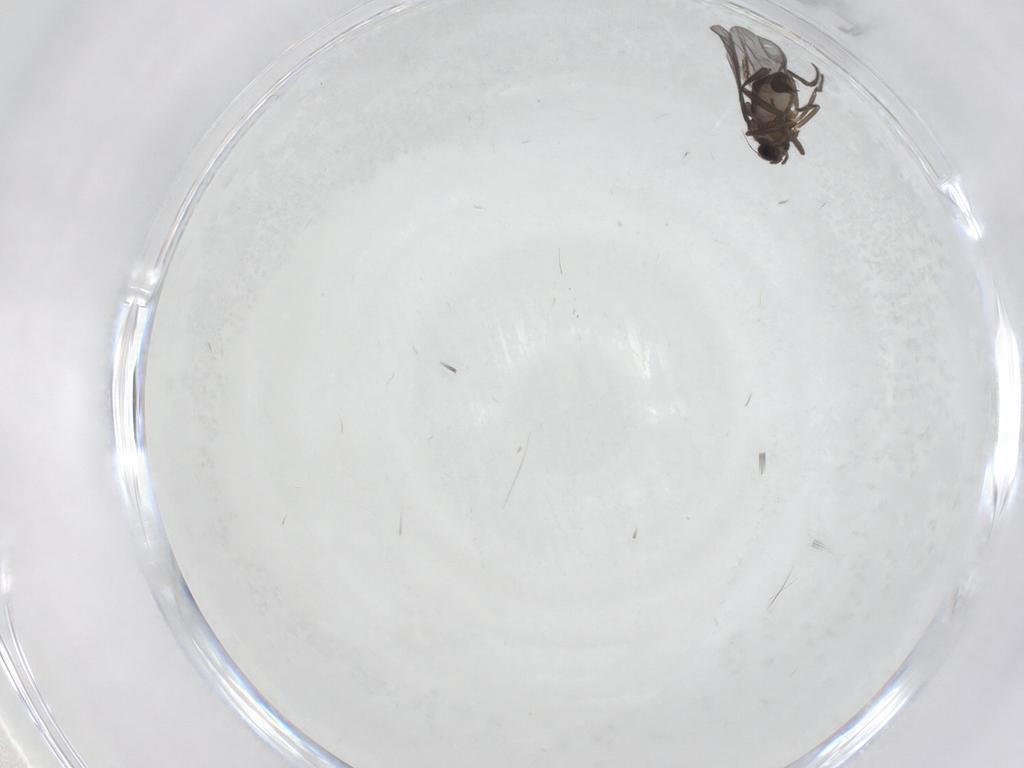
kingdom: Animalia
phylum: Arthropoda
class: Insecta
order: Diptera
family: Phoridae
